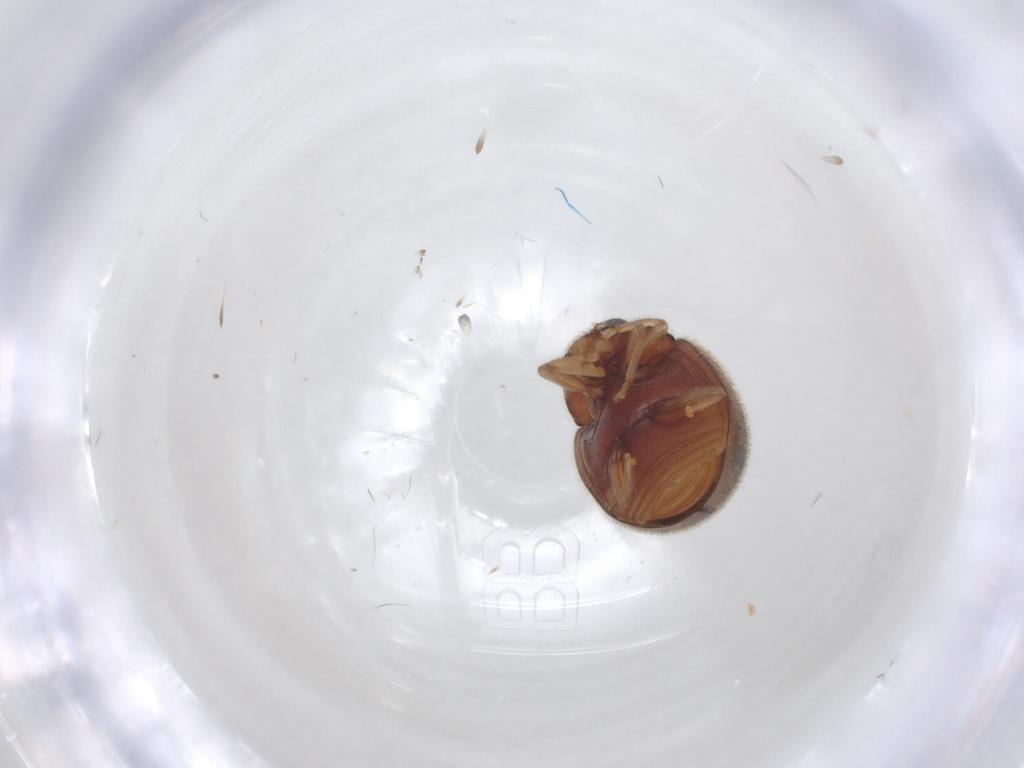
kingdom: Animalia
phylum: Arthropoda
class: Insecta
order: Coleoptera
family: Coccinellidae
